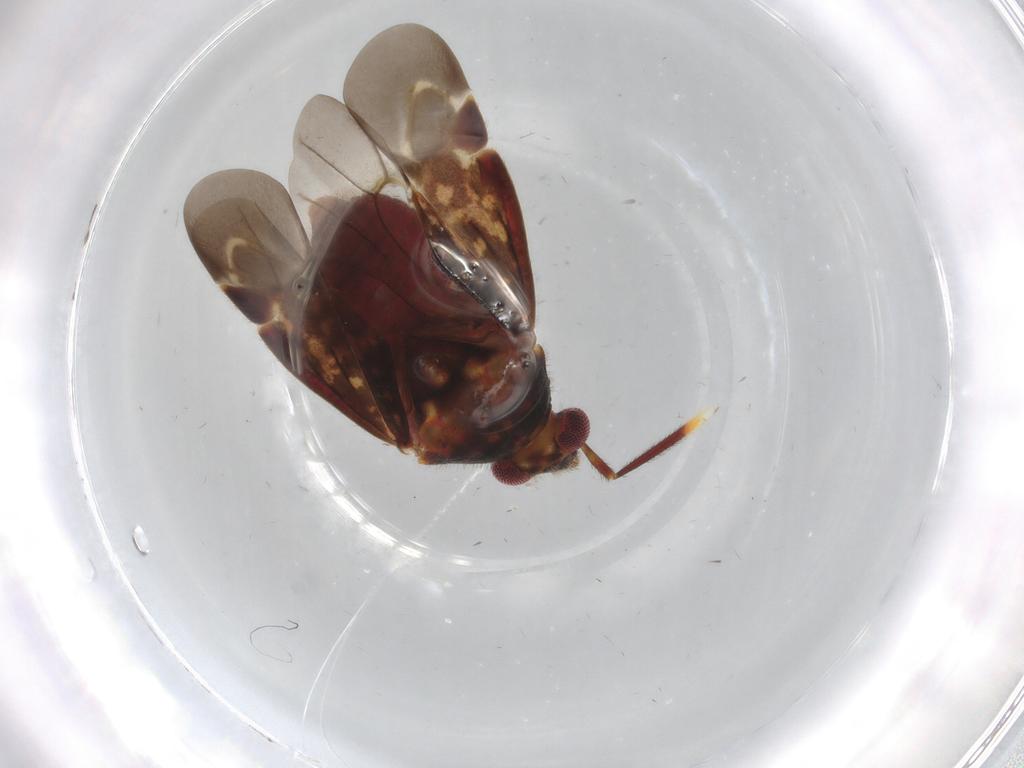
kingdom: Animalia
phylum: Arthropoda
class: Insecta
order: Hemiptera
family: Miridae
